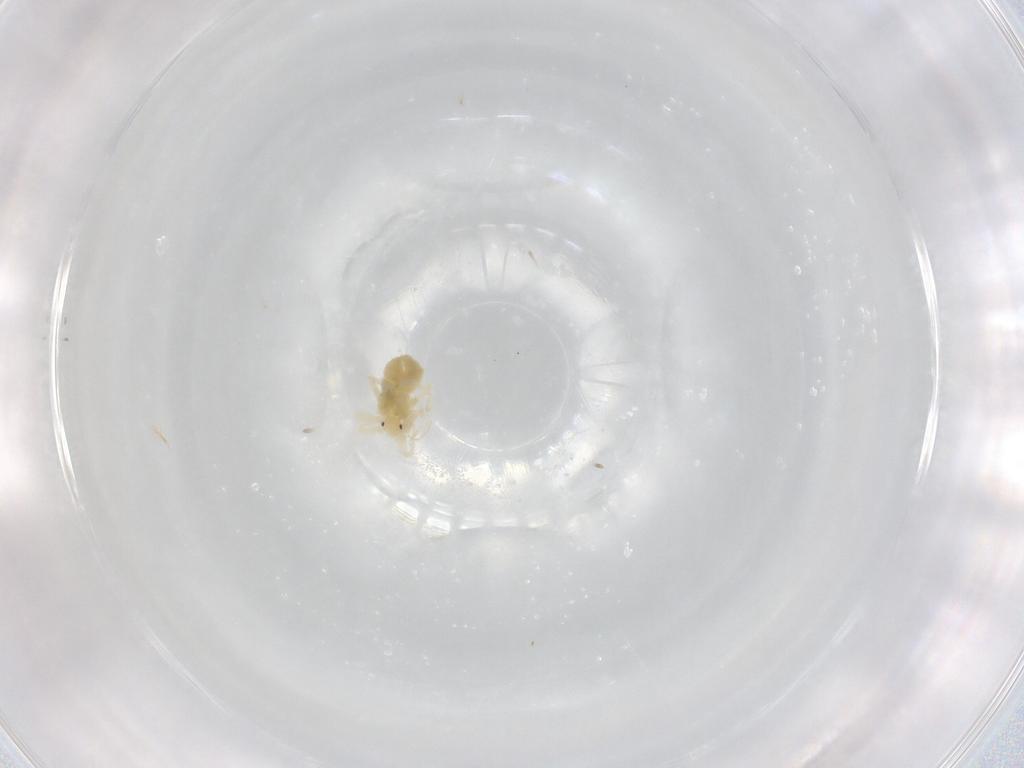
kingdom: Animalia
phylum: Arthropoda
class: Arachnida
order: Trombidiformes
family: Anystidae
